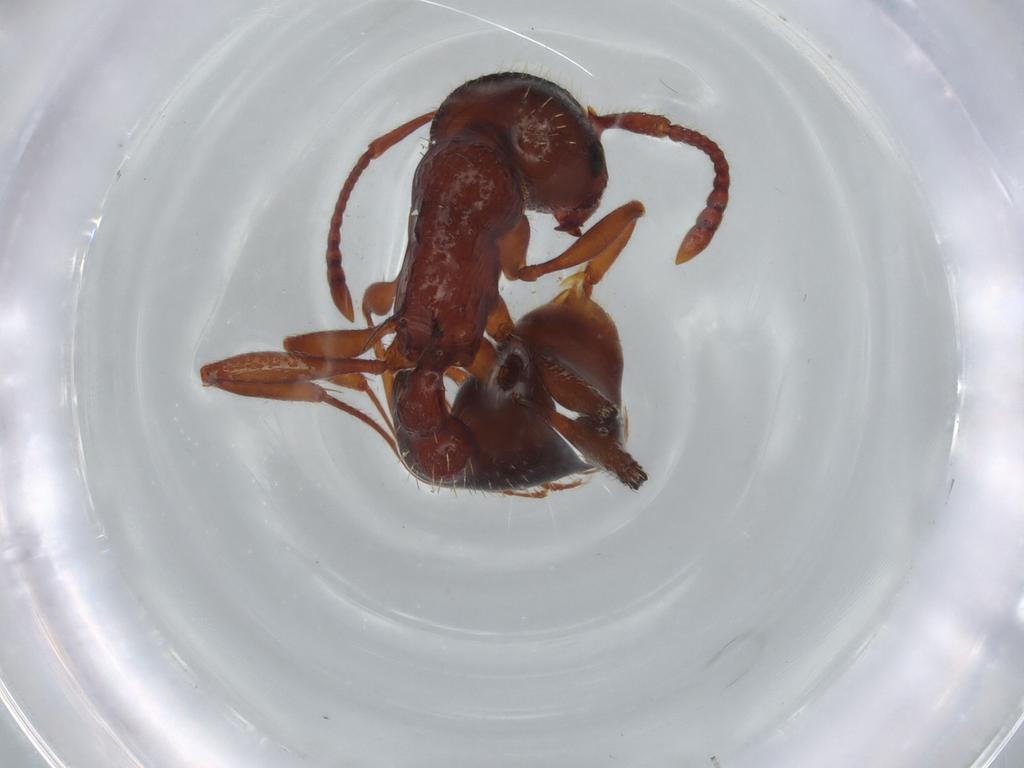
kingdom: Animalia
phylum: Arthropoda
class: Insecta
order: Hymenoptera
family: Formicidae
